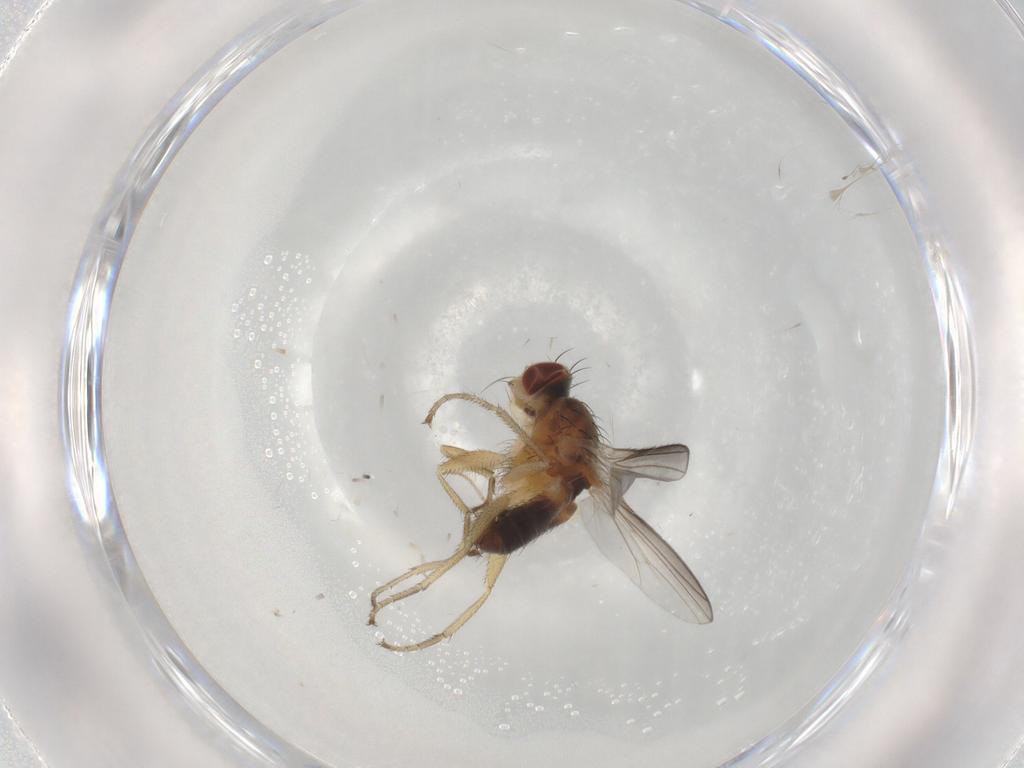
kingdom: Animalia
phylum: Arthropoda
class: Insecta
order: Diptera
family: Heleomyzidae
